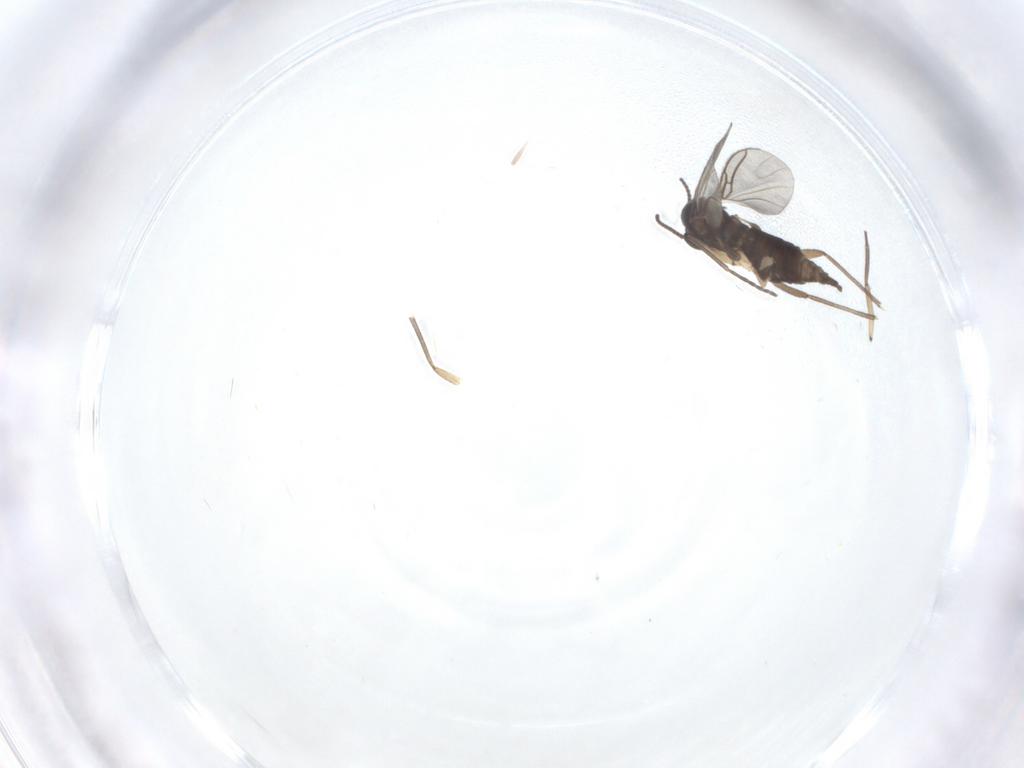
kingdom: Animalia
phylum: Arthropoda
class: Insecta
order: Diptera
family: Sciaridae
